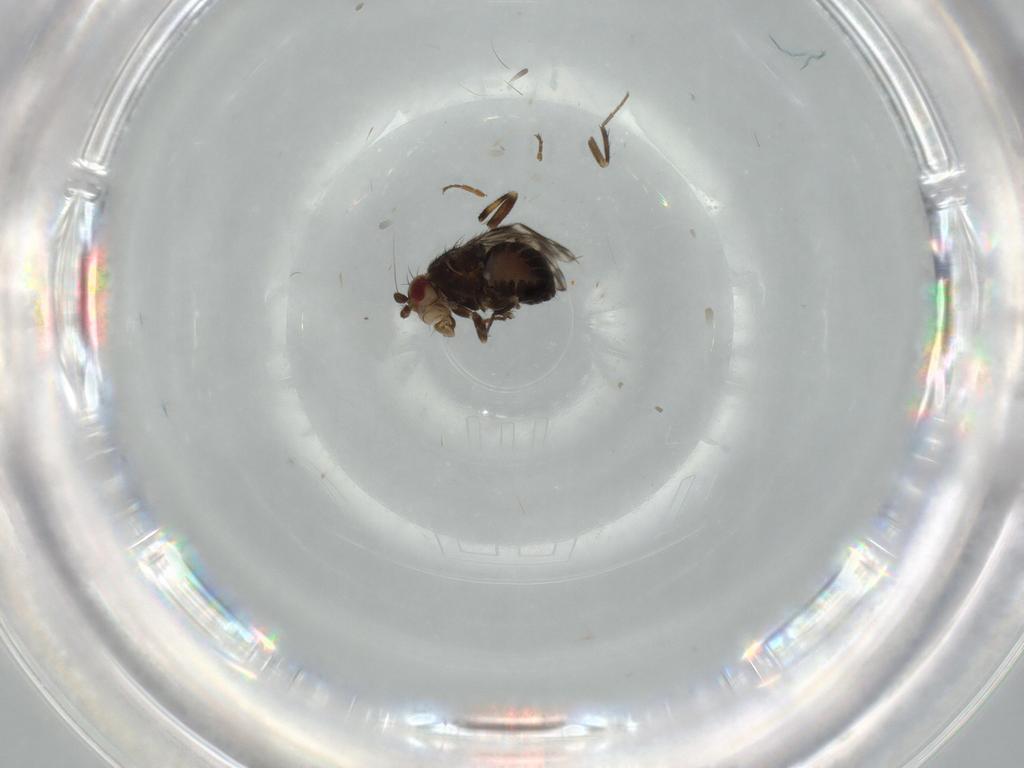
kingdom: Animalia
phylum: Arthropoda
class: Insecta
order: Diptera
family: Sphaeroceridae
